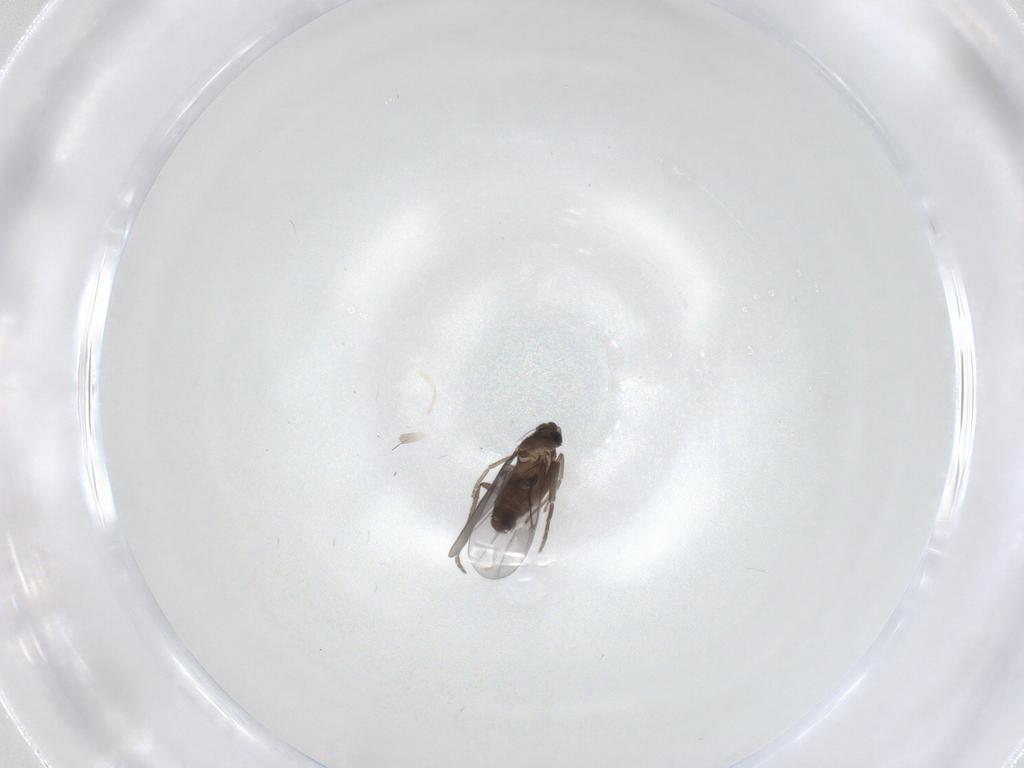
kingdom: Animalia
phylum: Arthropoda
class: Insecta
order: Diptera
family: Chironomidae
